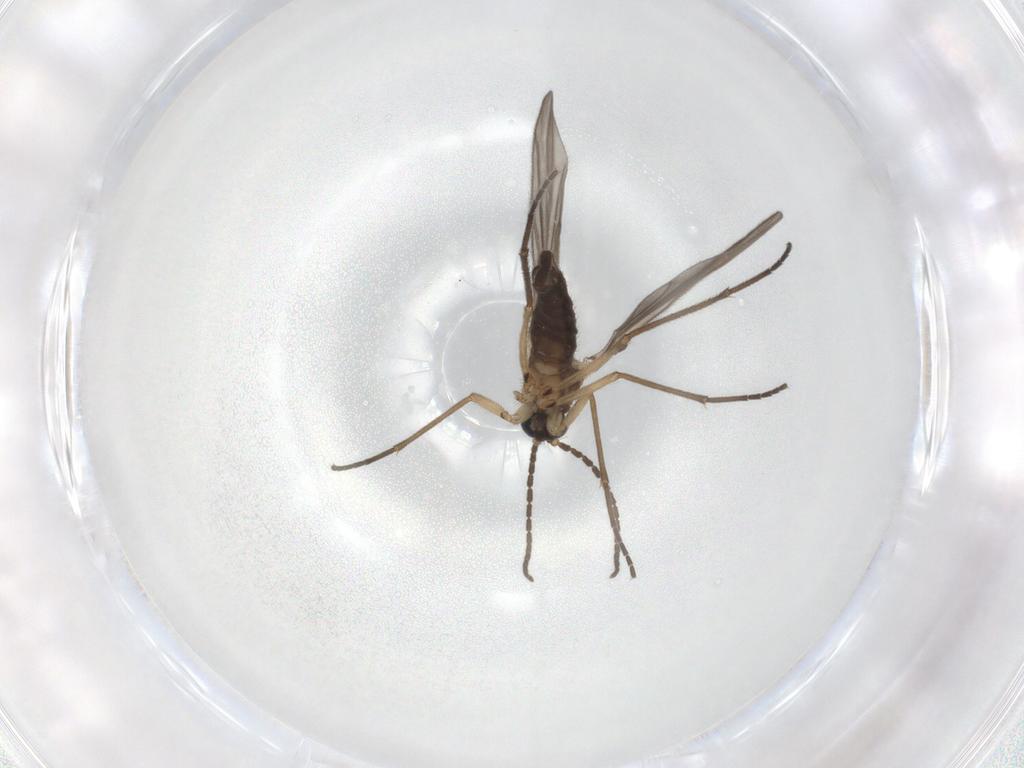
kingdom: Animalia
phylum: Arthropoda
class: Insecta
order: Diptera
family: Sciaridae
